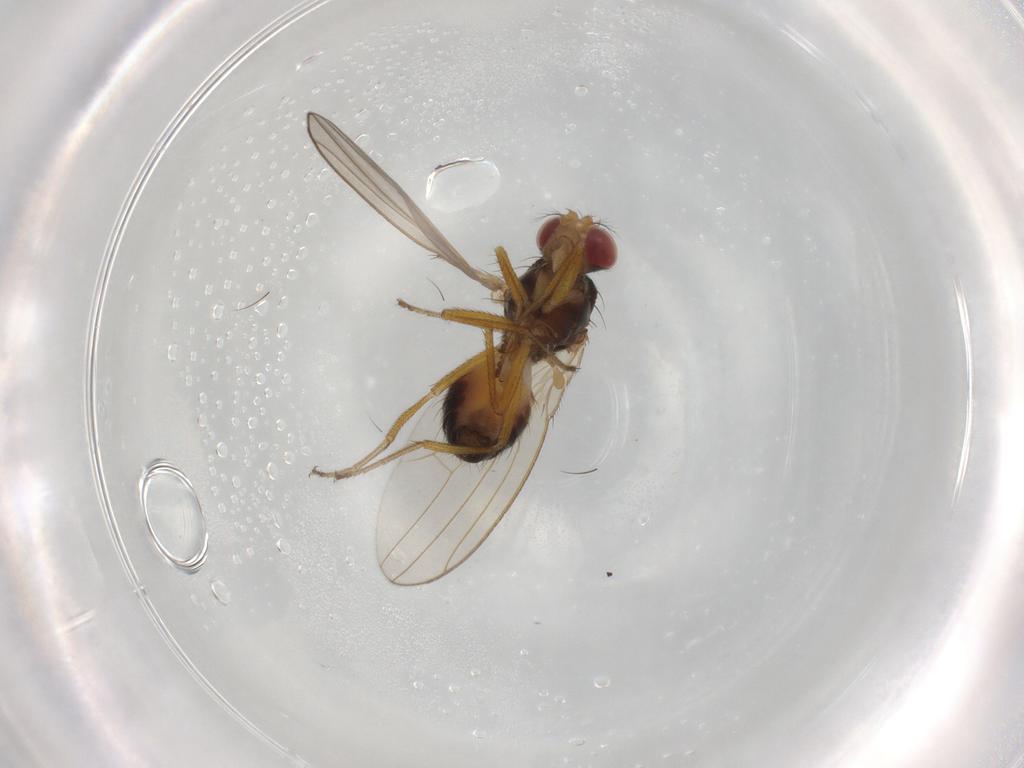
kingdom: Animalia
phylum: Arthropoda
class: Insecta
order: Diptera
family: Drosophilidae
